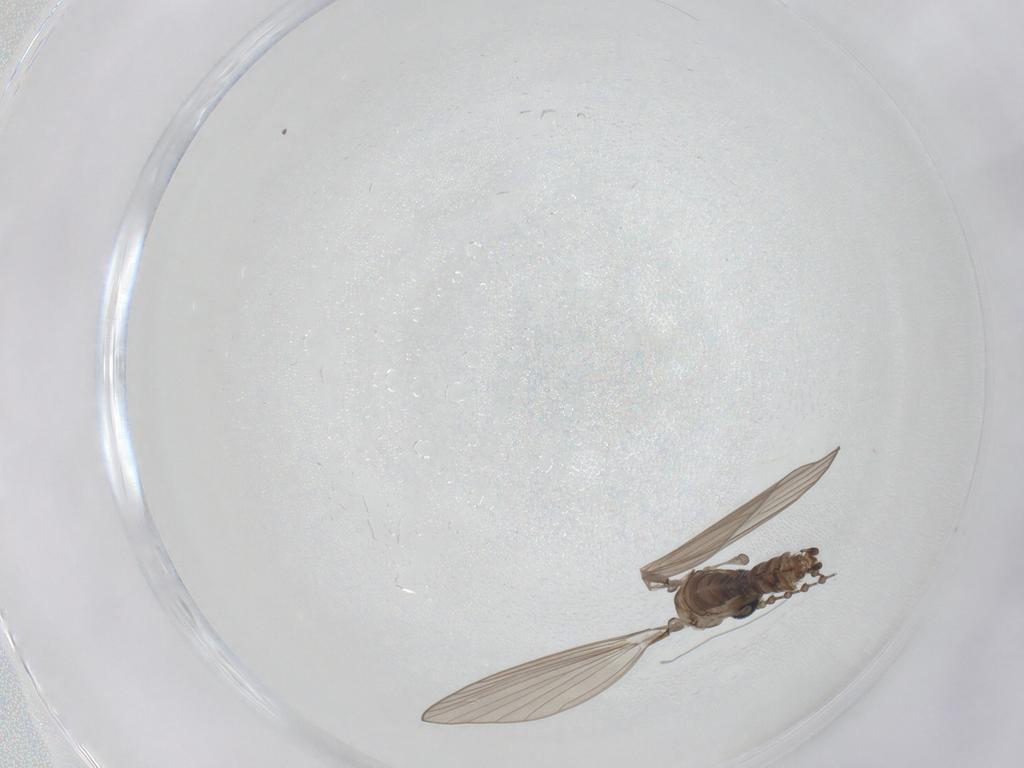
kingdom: Animalia
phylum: Arthropoda
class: Insecta
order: Diptera
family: Psychodidae
